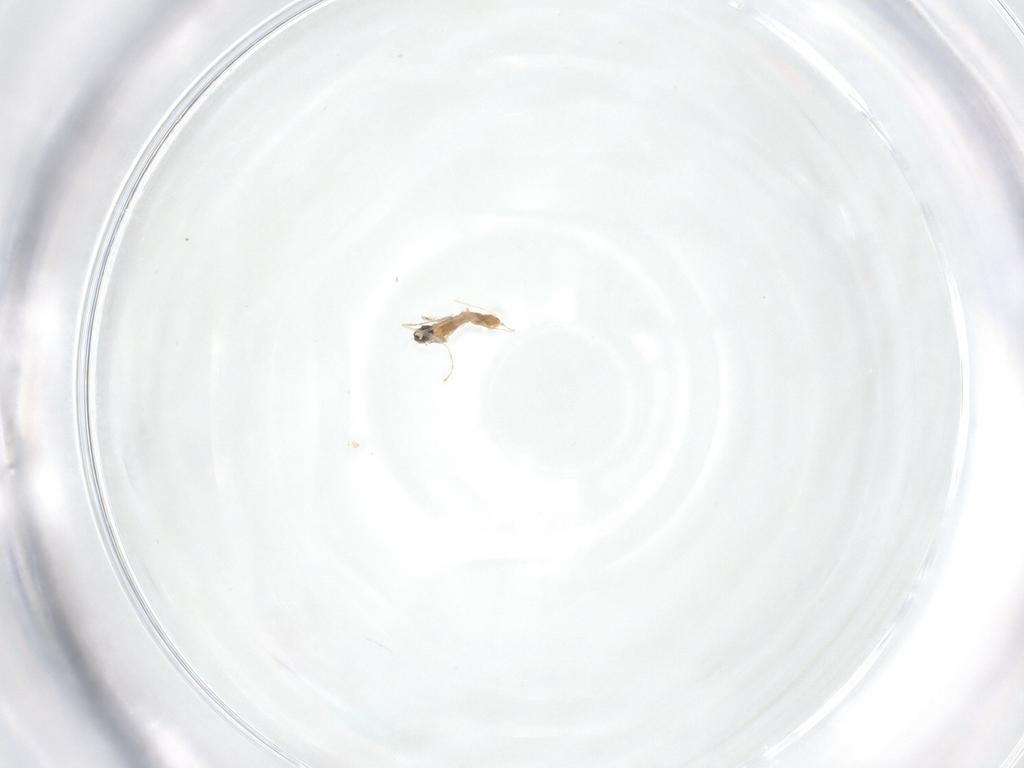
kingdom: Animalia
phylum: Arthropoda
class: Insecta
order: Diptera
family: Cecidomyiidae
